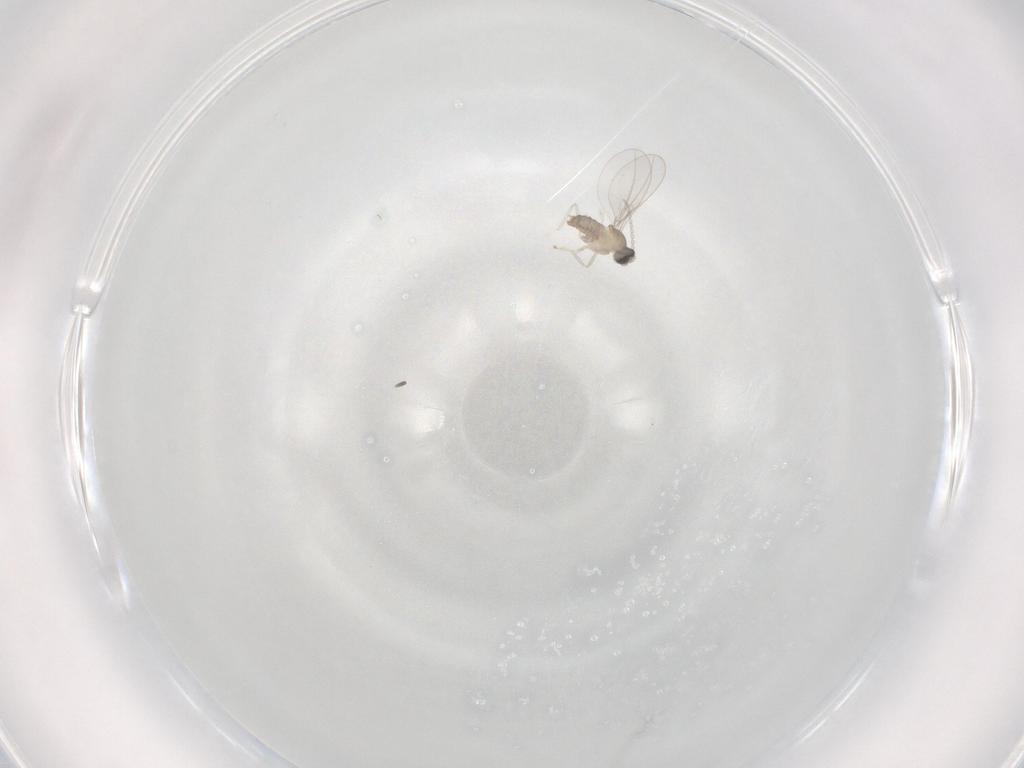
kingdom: Animalia
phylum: Arthropoda
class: Insecta
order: Diptera
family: Cecidomyiidae
